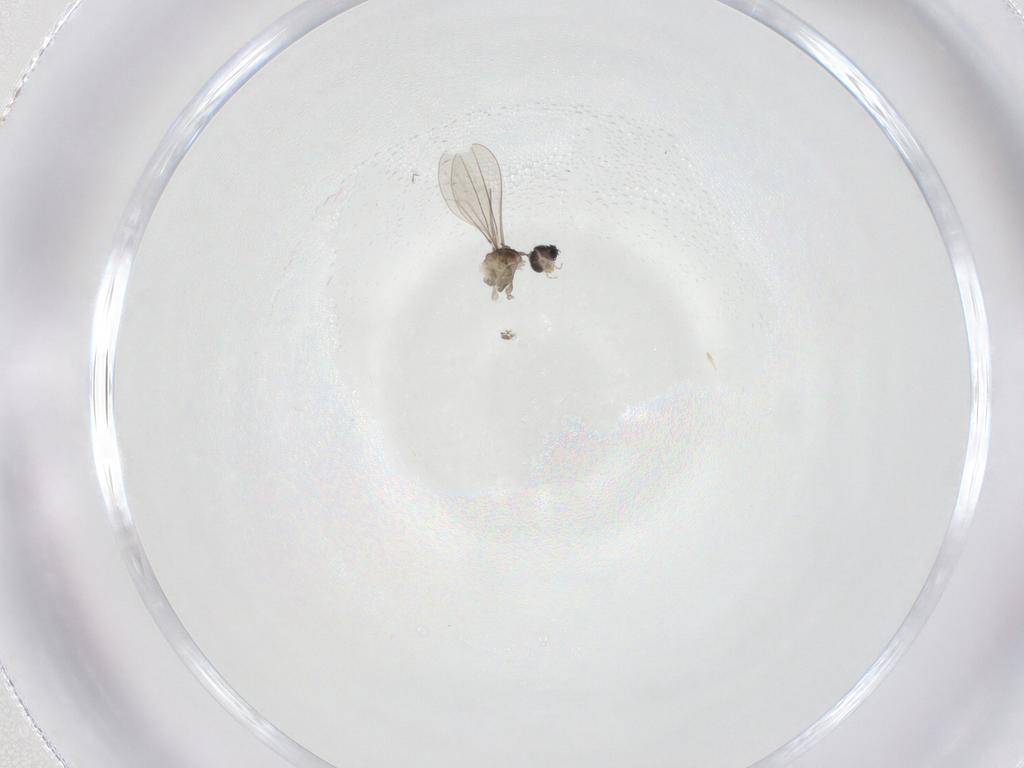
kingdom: Animalia
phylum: Arthropoda
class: Insecta
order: Diptera
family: Cecidomyiidae
